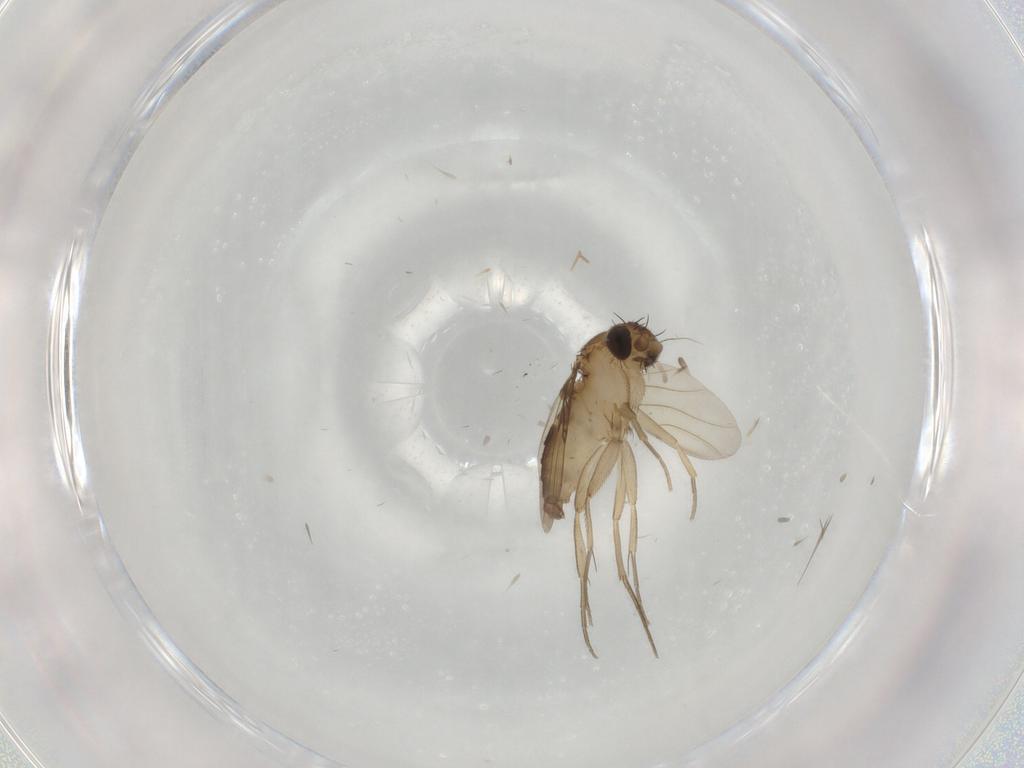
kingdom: Animalia
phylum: Arthropoda
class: Insecta
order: Diptera
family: Phoridae
